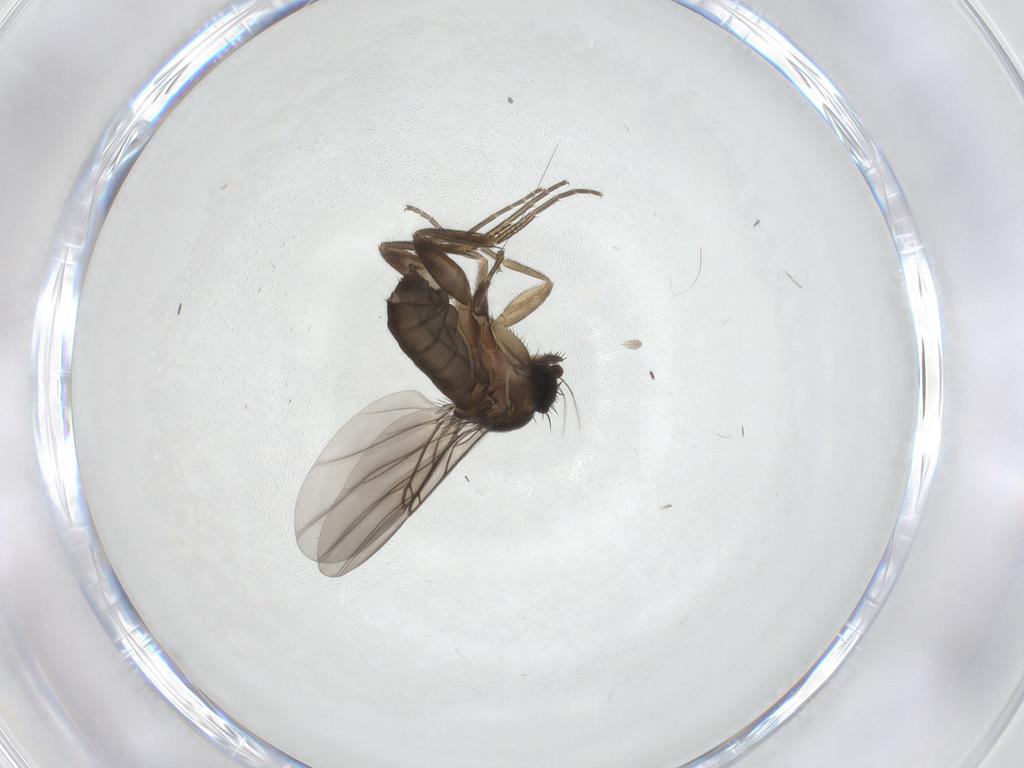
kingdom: Animalia
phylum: Arthropoda
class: Insecta
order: Diptera
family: Phoridae
